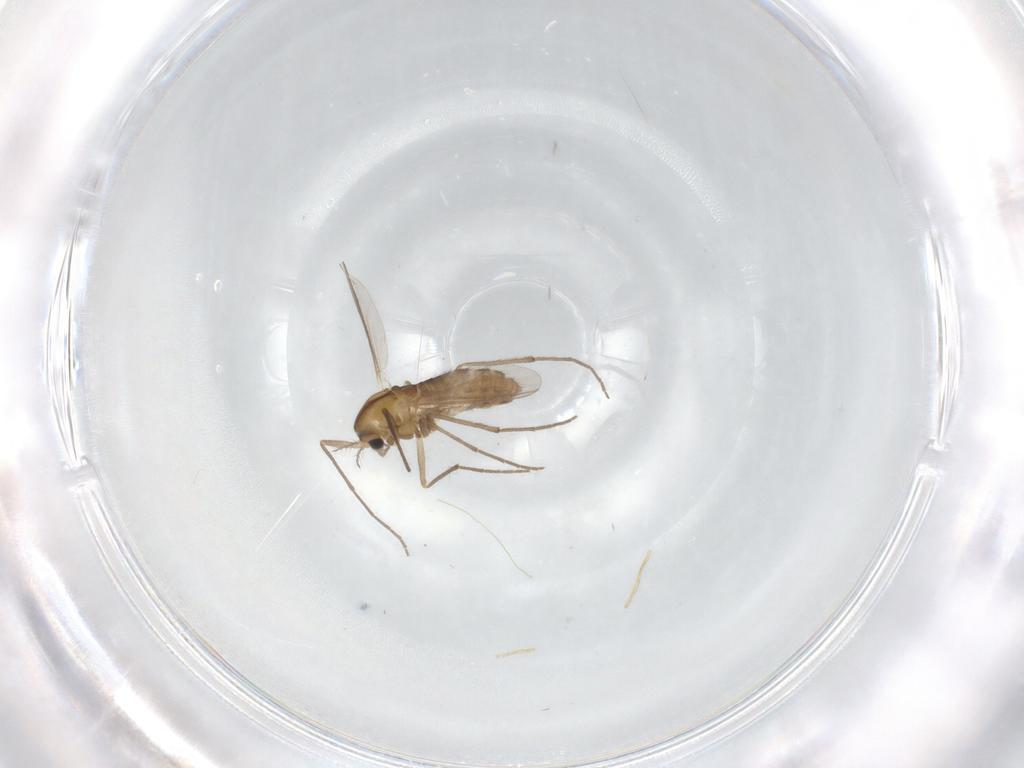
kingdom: Animalia
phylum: Arthropoda
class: Insecta
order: Diptera
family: Chironomidae
